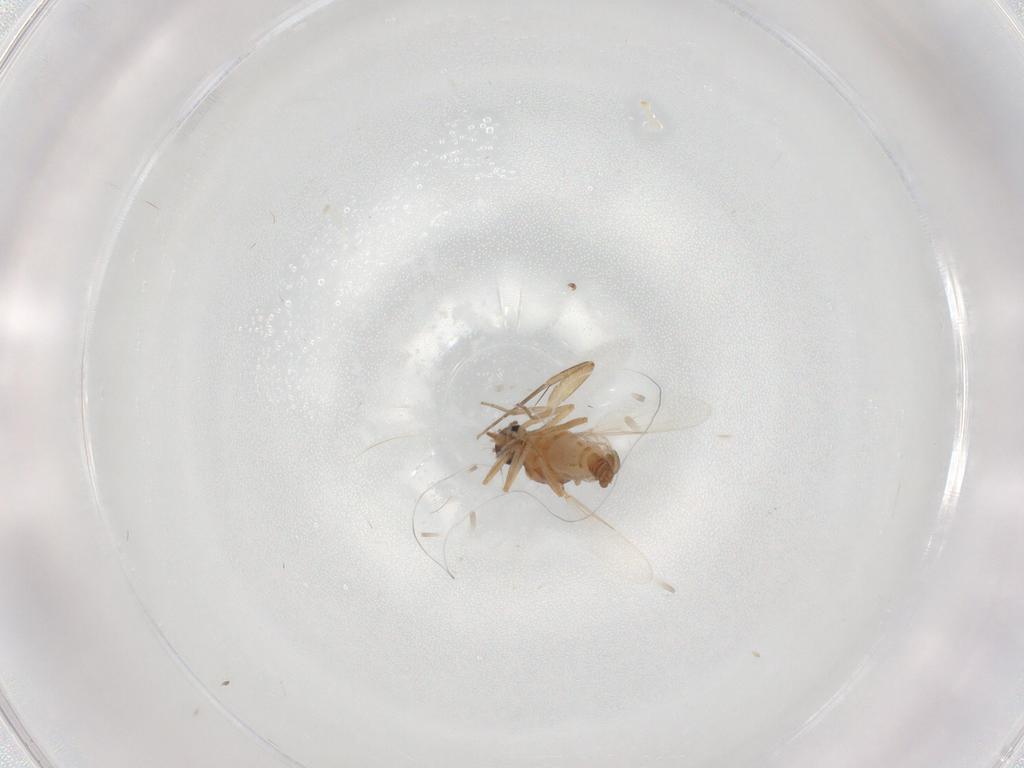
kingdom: Animalia
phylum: Arthropoda
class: Insecta
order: Diptera
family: Ceratopogonidae
